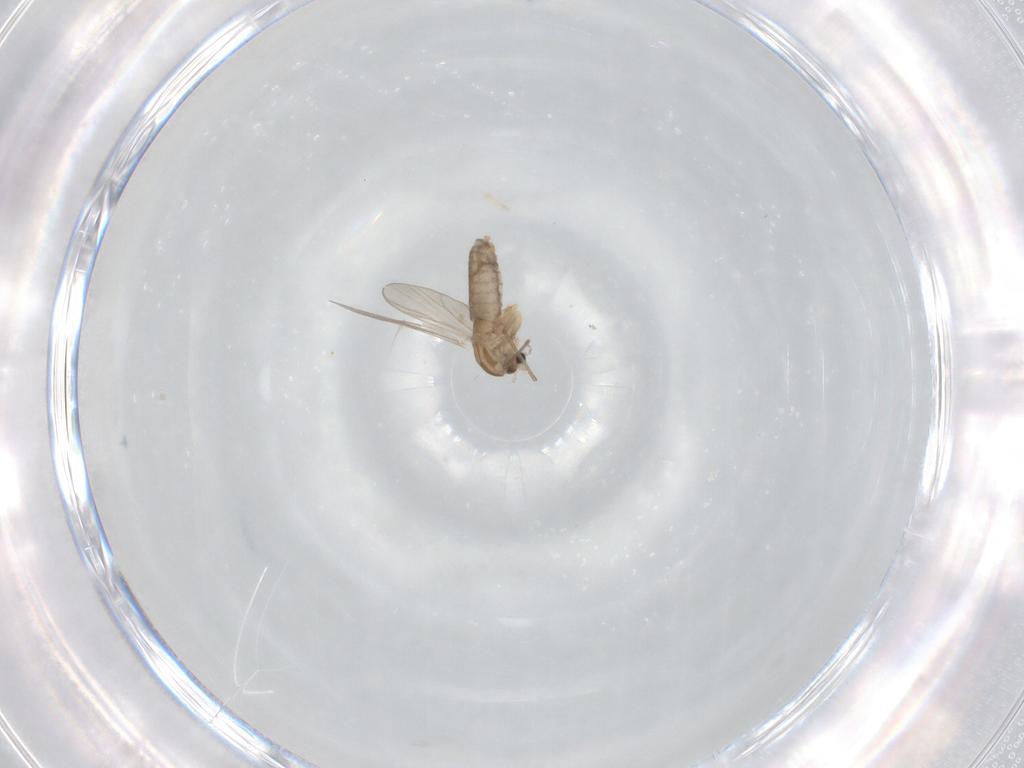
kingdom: Animalia
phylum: Arthropoda
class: Insecta
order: Diptera
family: Chironomidae
